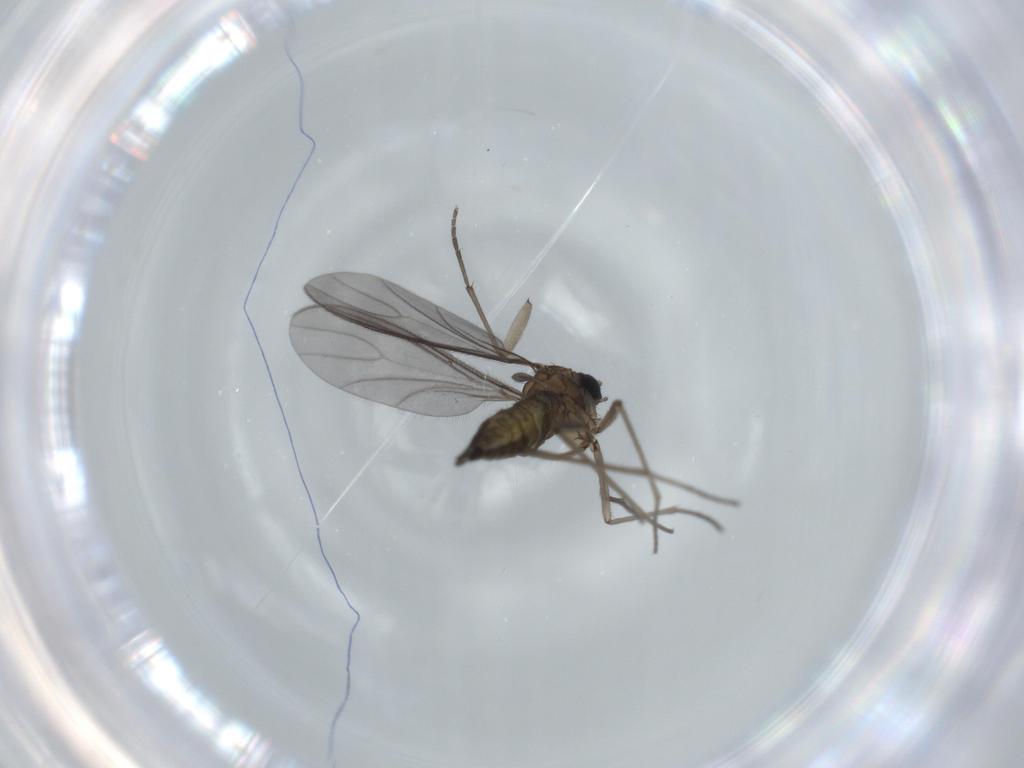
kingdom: Animalia
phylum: Arthropoda
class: Insecta
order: Diptera
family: Sciaridae
